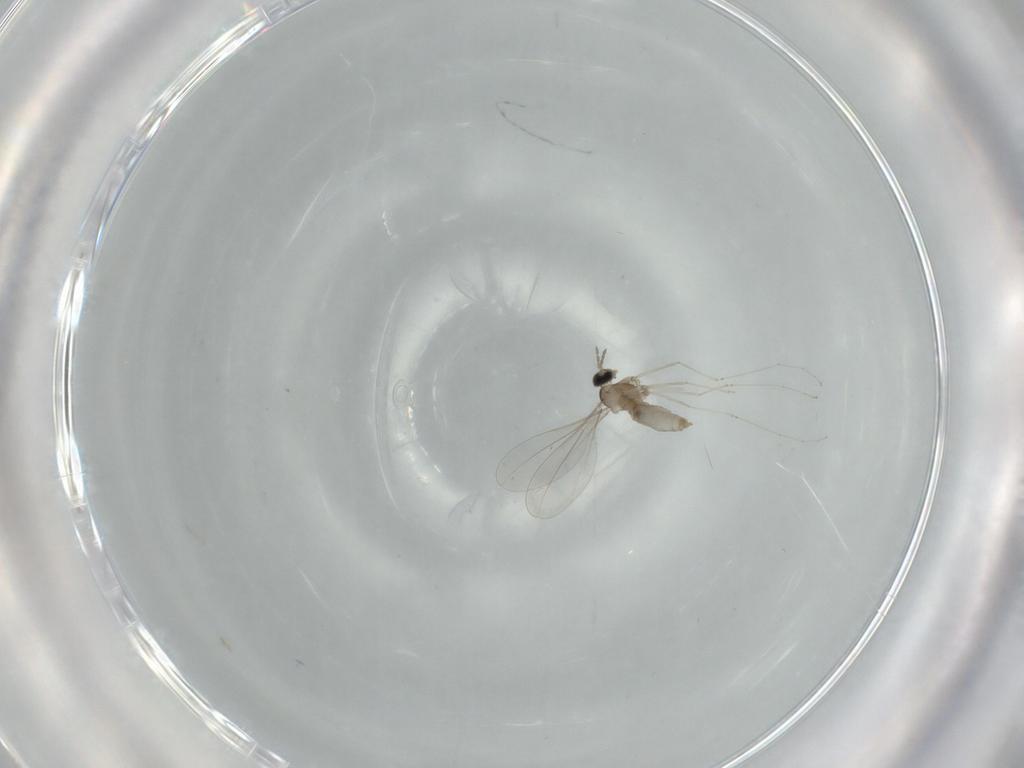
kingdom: Animalia
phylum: Arthropoda
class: Insecta
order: Diptera
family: Cecidomyiidae
